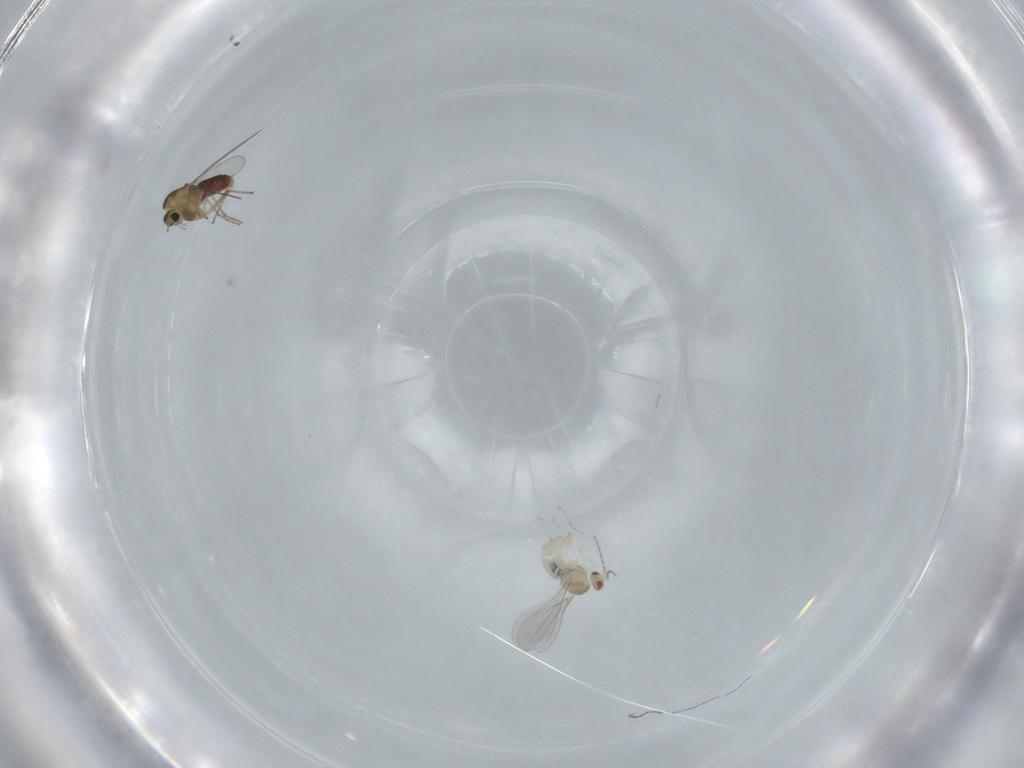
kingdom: Animalia
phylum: Arthropoda
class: Insecta
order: Diptera
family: Cecidomyiidae
